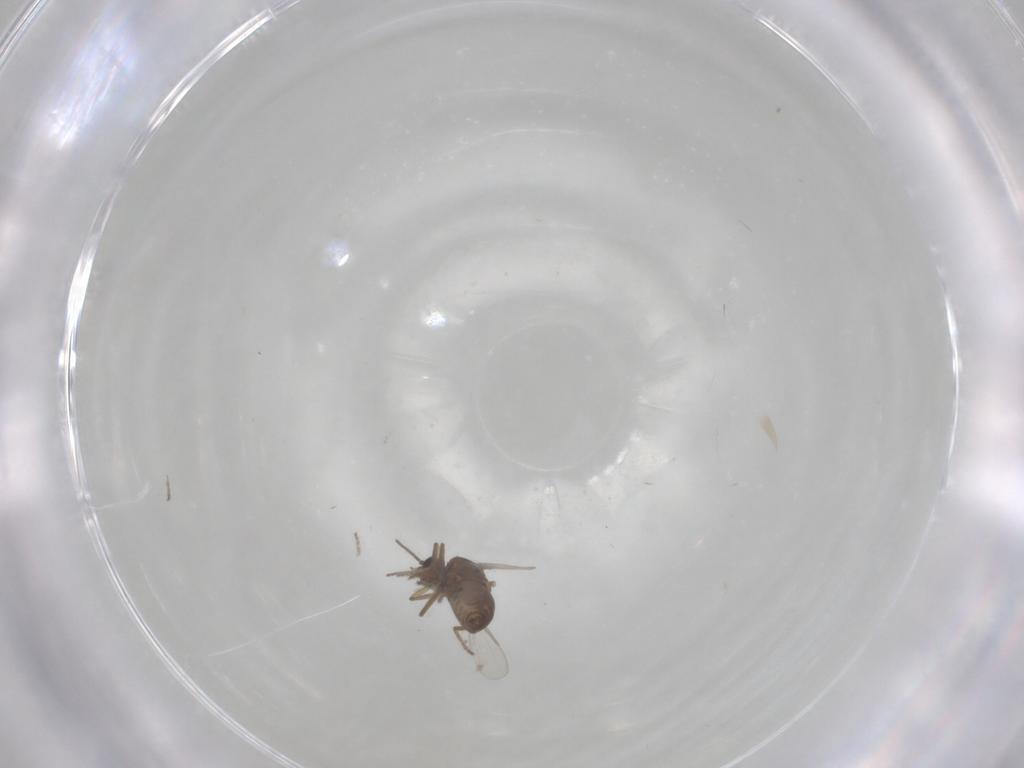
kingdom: Animalia
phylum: Arthropoda
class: Insecta
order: Diptera
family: Ceratopogonidae
